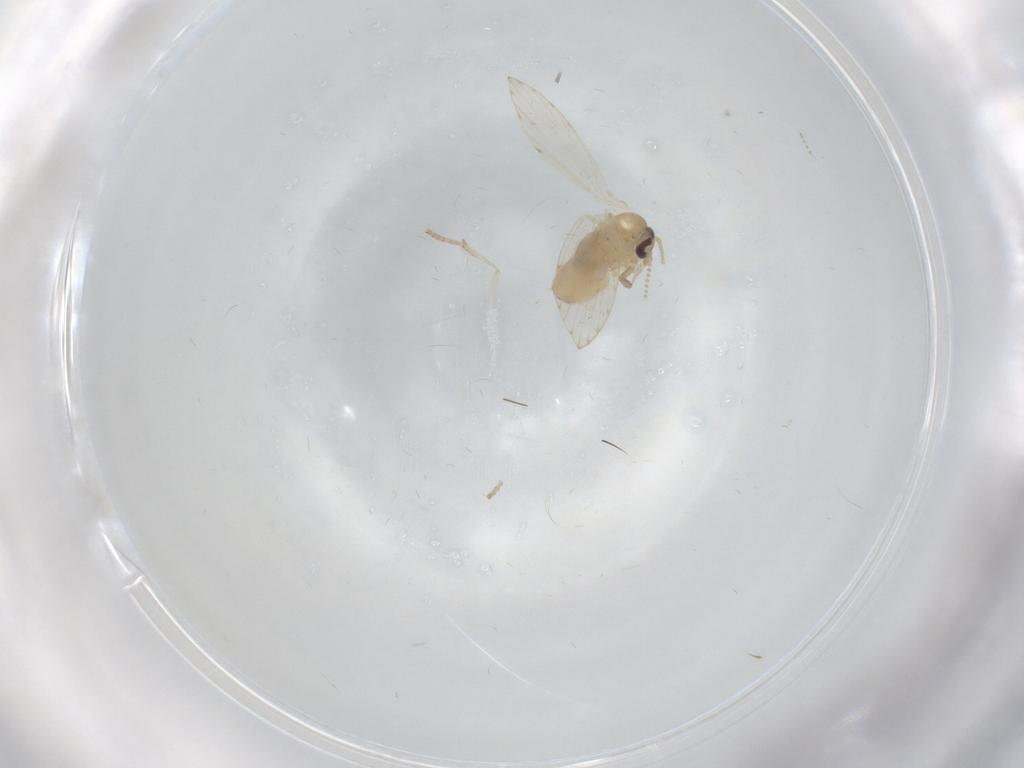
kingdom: Animalia
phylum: Arthropoda
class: Insecta
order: Diptera
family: Psychodidae
